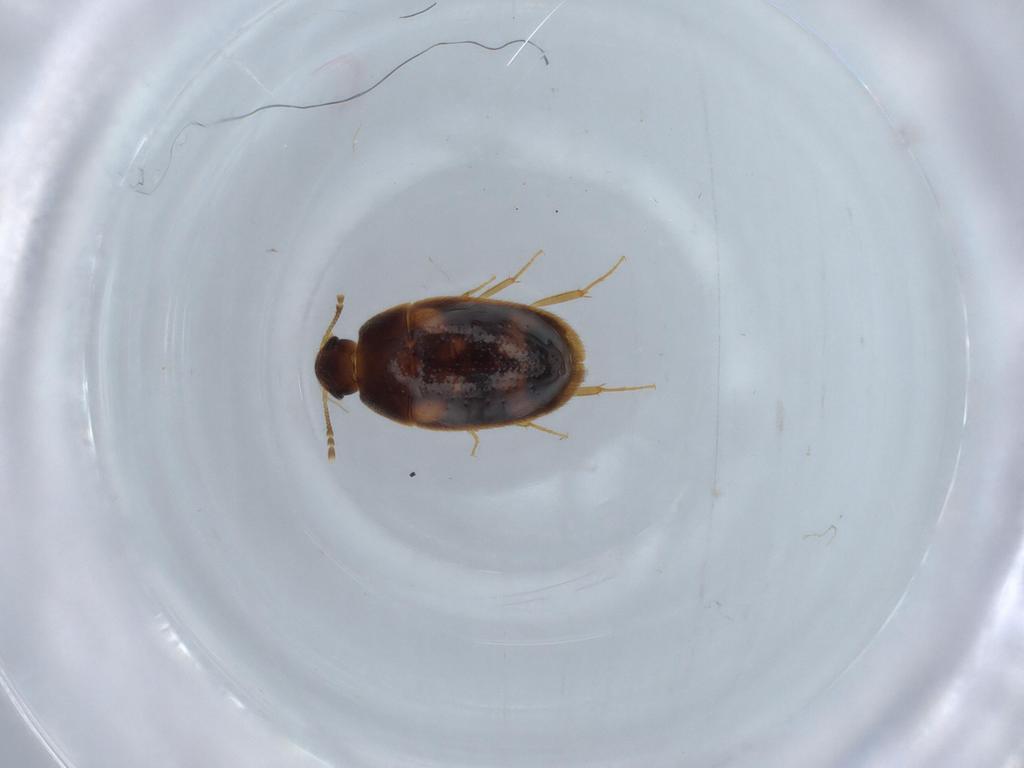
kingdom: Animalia
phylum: Arthropoda
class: Insecta
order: Coleoptera
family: Mycetophagidae
